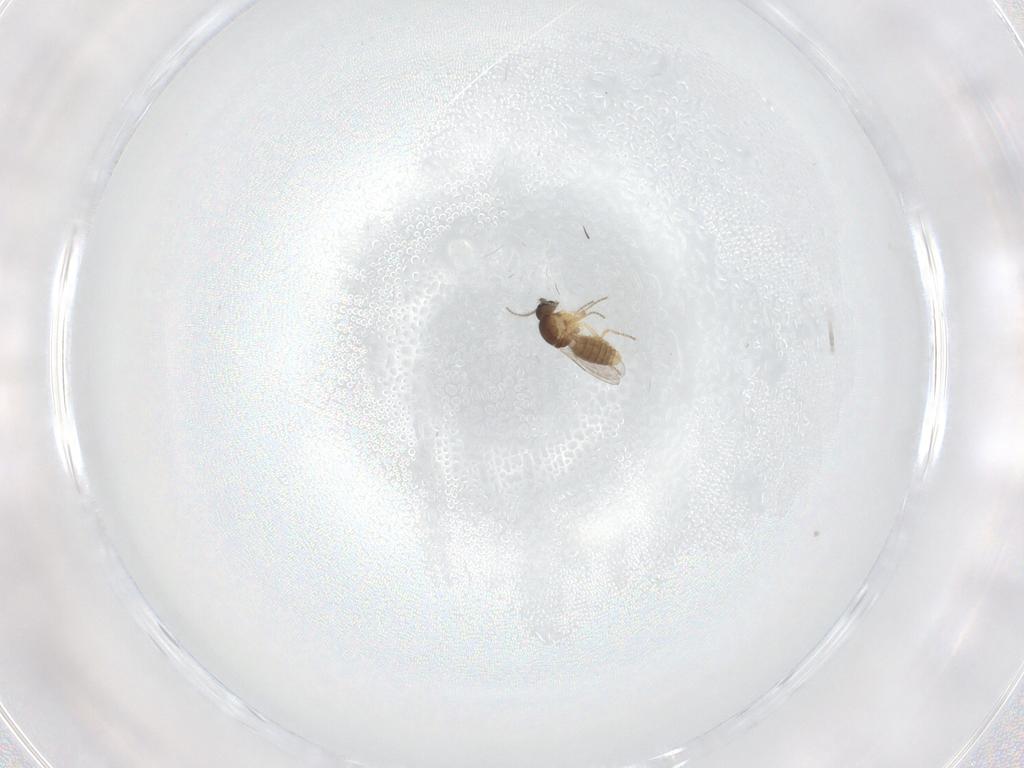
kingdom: Animalia
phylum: Arthropoda
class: Insecta
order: Diptera
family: Ceratopogonidae
